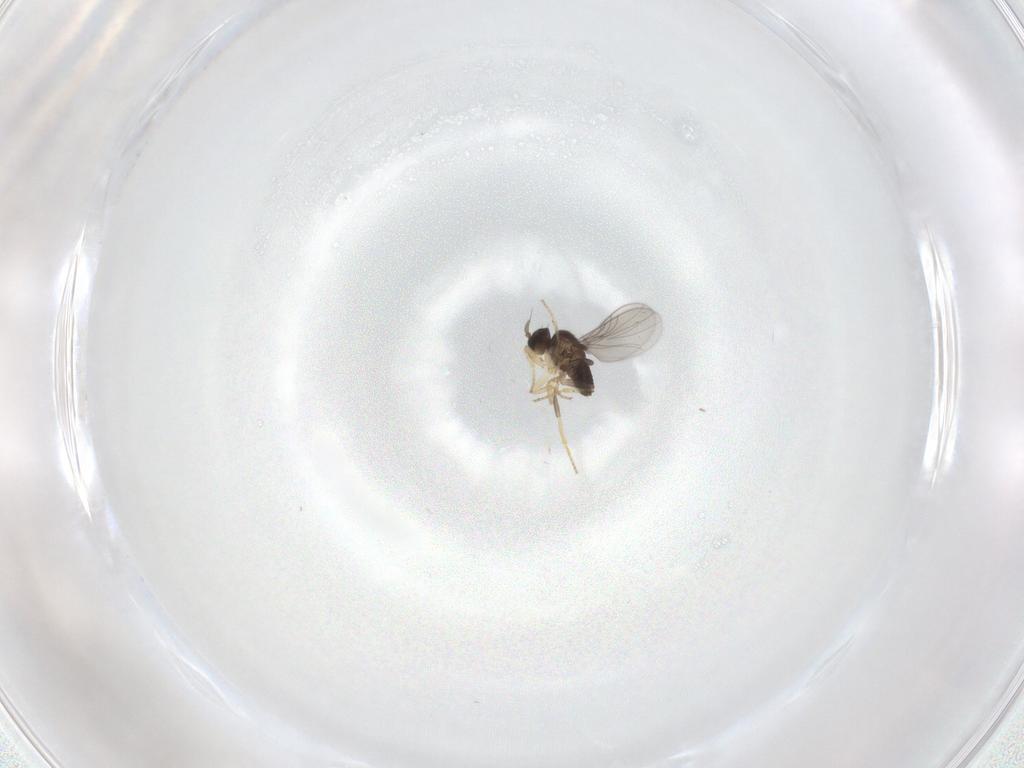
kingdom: Animalia
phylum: Arthropoda
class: Insecta
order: Diptera
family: Hybotidae
